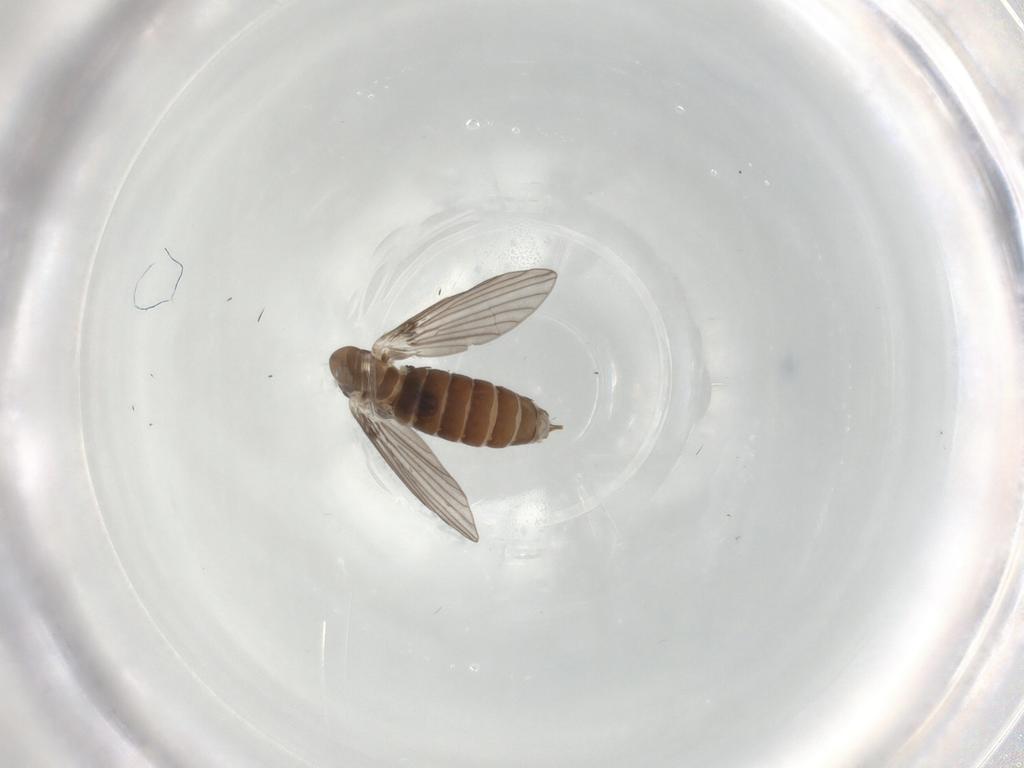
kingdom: Animalia
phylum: Arthropoda
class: Insecta
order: Diptera
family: Psychodidae
